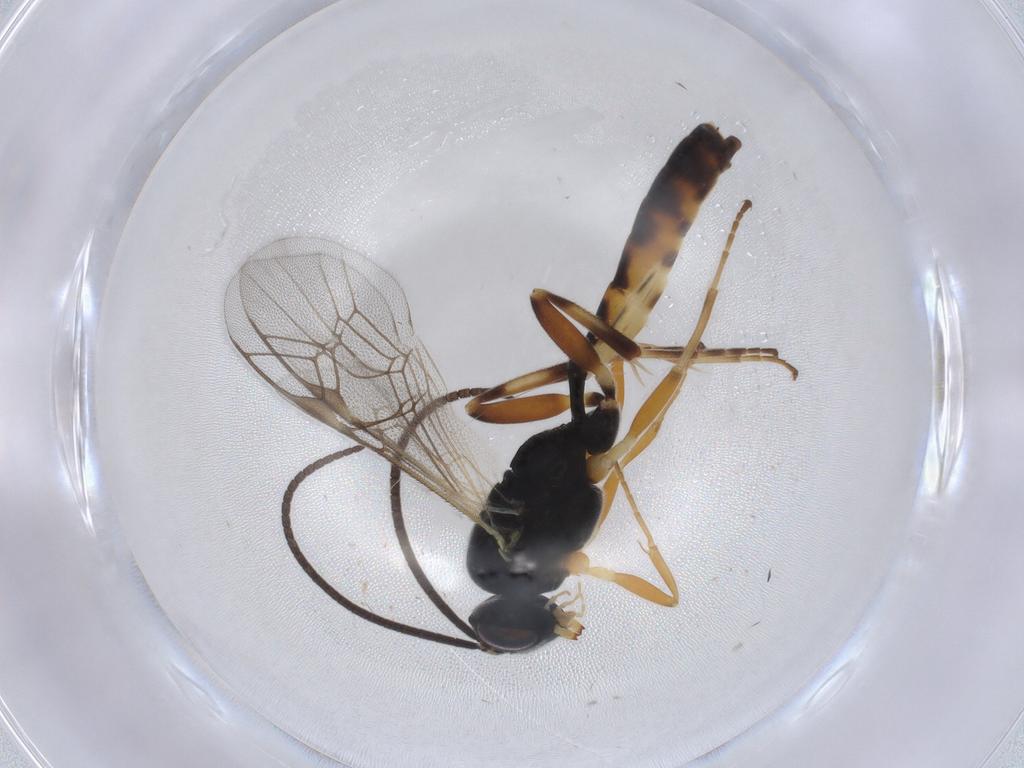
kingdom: Animalia
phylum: Arthropoda
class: Insecta
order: Hymenoptera
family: Ichneumonidae
